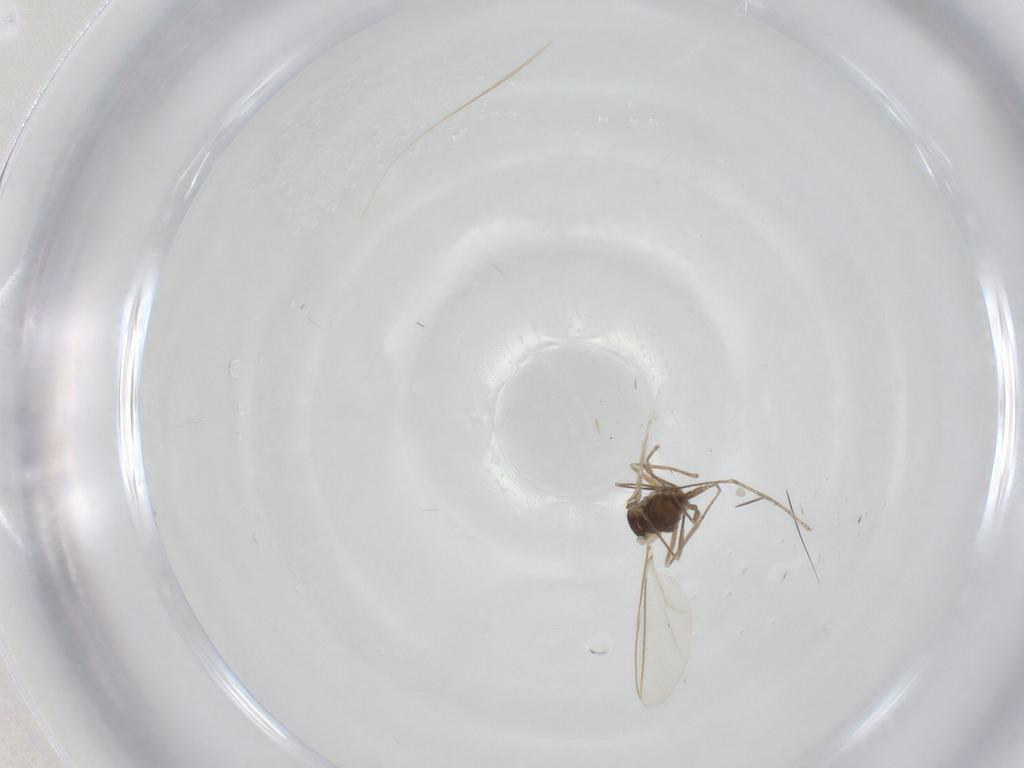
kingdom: Animalia
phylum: Arthropoda
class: Insecta
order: Diptera
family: Cecidomyiidae
